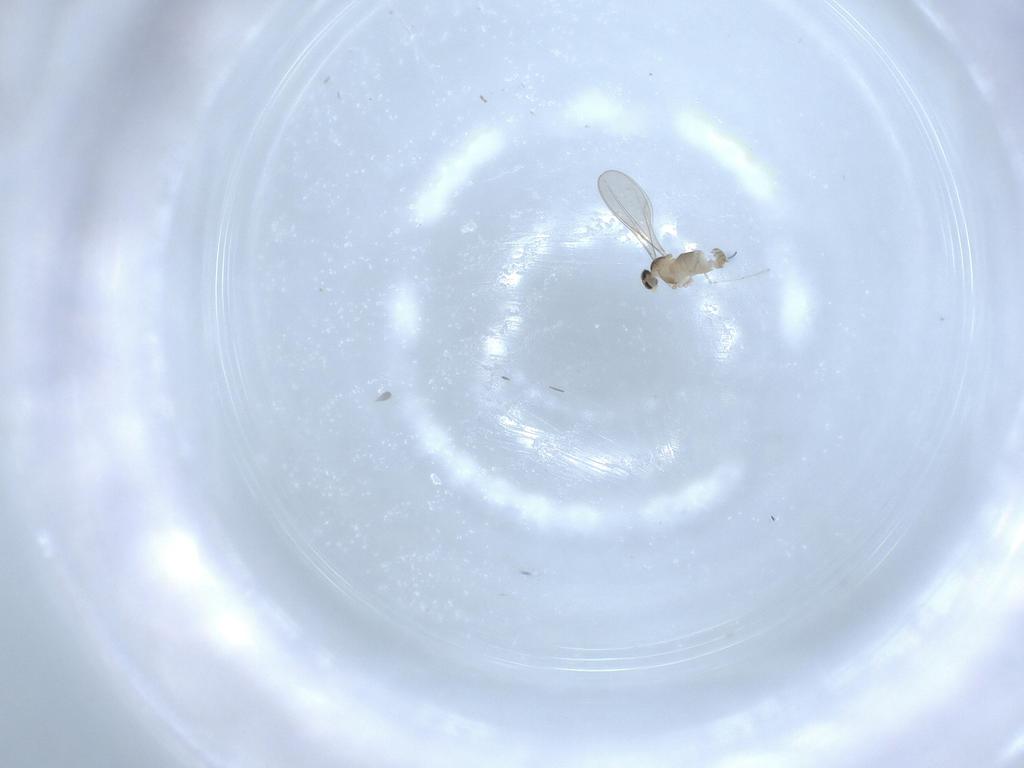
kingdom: Animalia
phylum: Arthropoda
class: Insecta
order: Diptera
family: Cecidomyiidae
